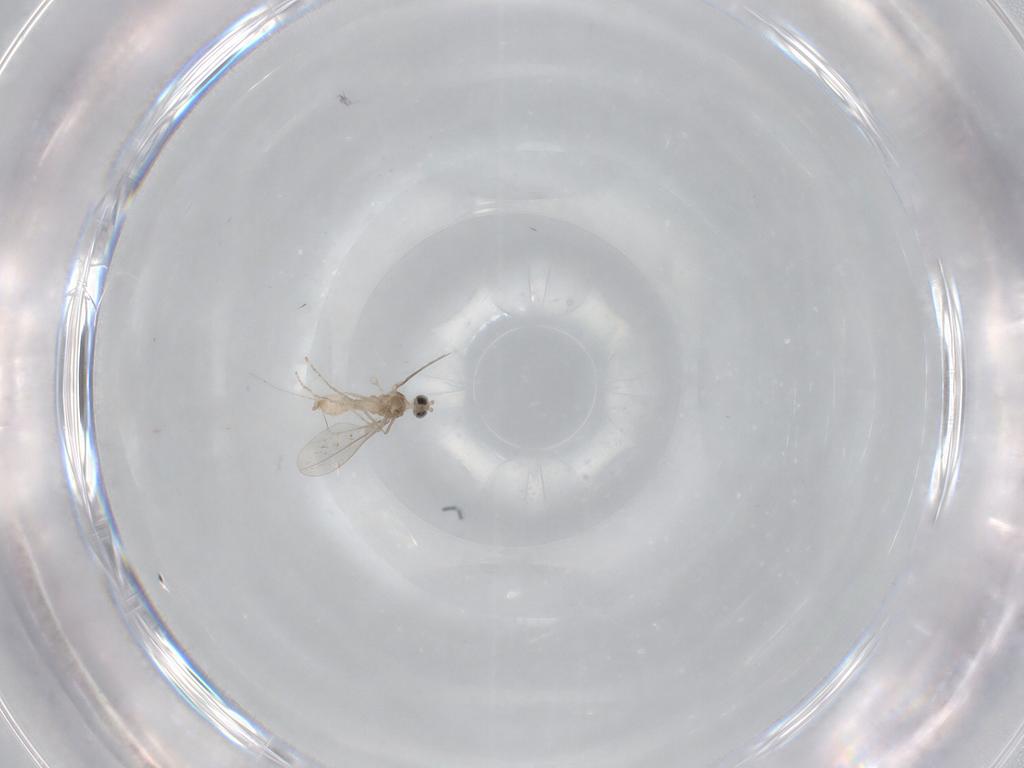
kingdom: Animalia
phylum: Arthropoda
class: Insecta
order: Diptera
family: Cecidomyiidae
